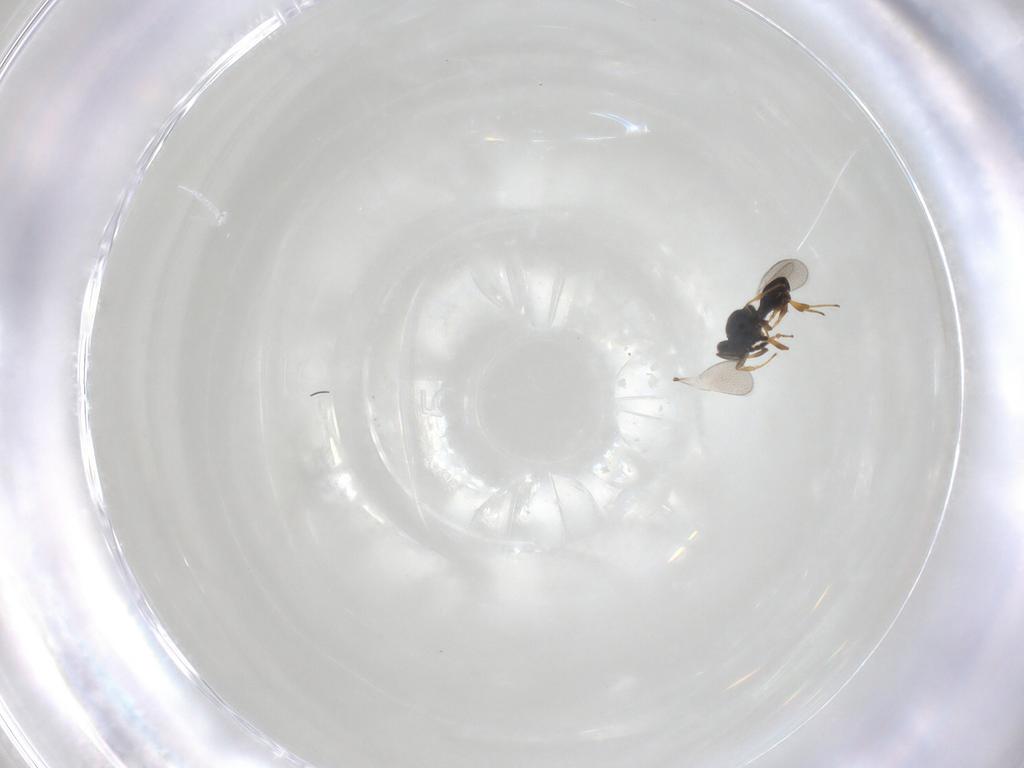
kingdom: Animalia
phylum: Arthropoda
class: Insecta
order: Hymenoptera
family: Platygastridae
